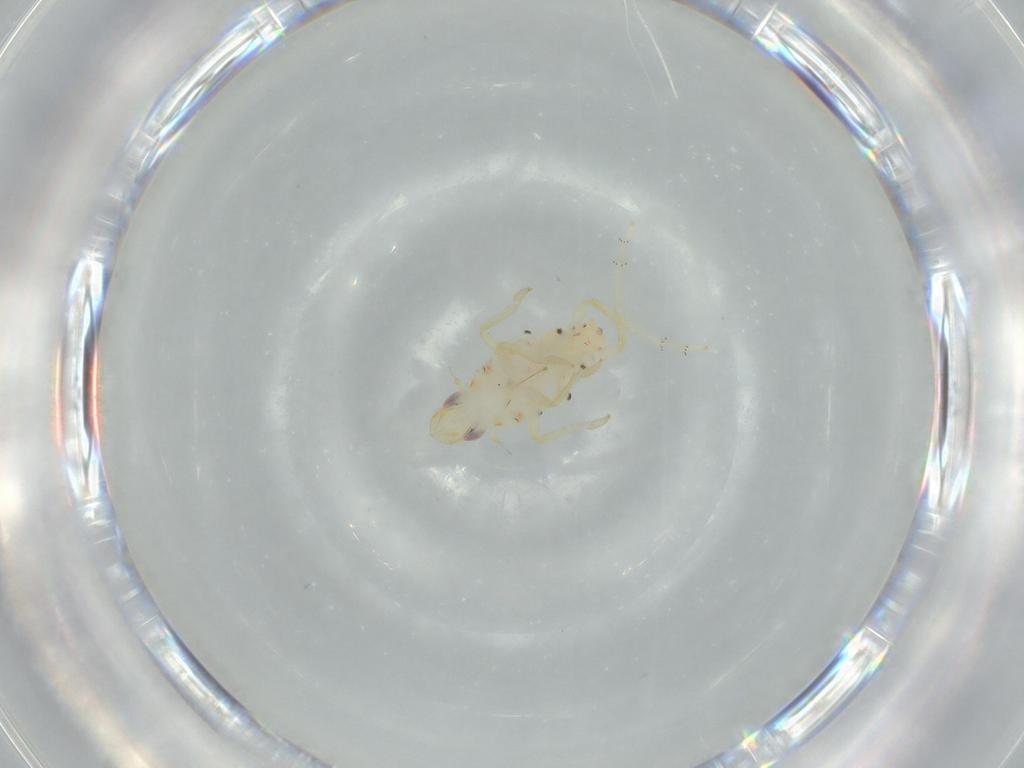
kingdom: Animalia
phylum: Arthropoda
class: Insecta
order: Hemiptera
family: Tropiduchidae
